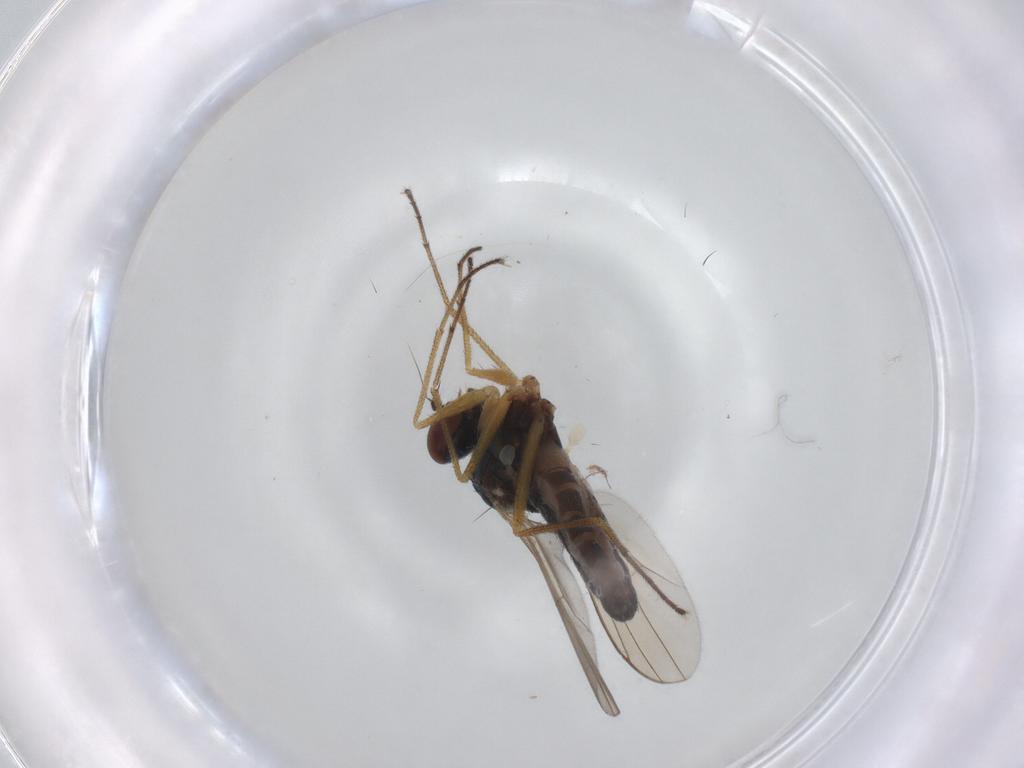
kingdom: Animalia
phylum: Arthropoda
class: Insecta
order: Diptera
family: Dolichopodidae
